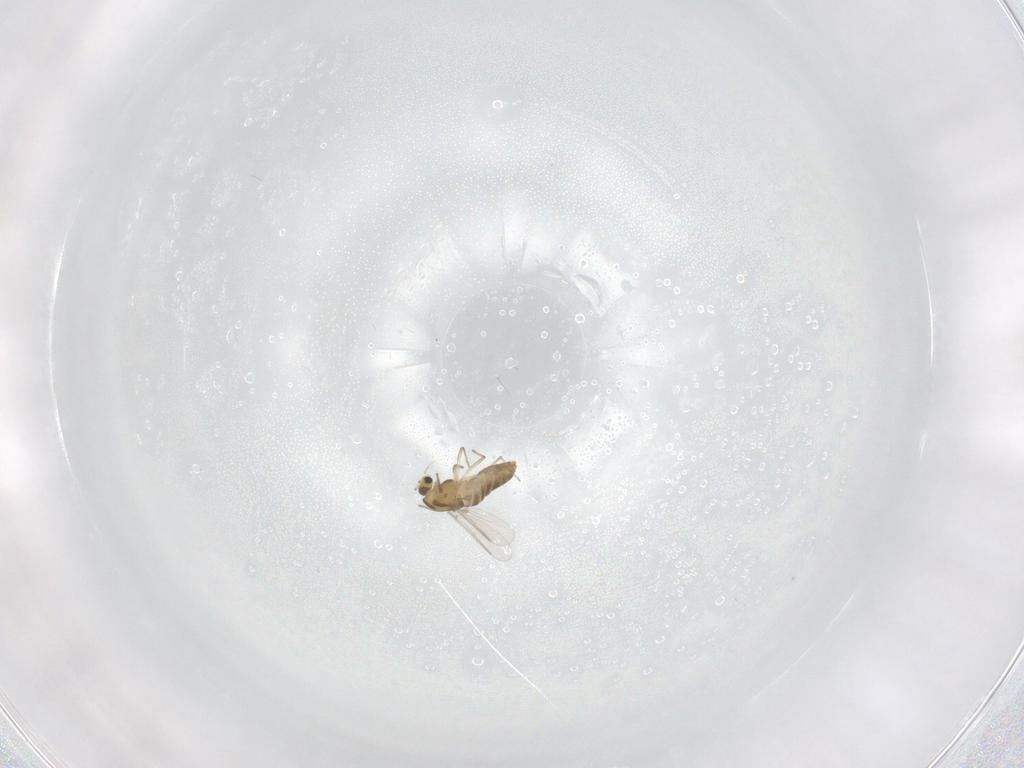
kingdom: Animalia
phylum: Arthropoda
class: Insecta
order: Diptera
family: Chironomidae
